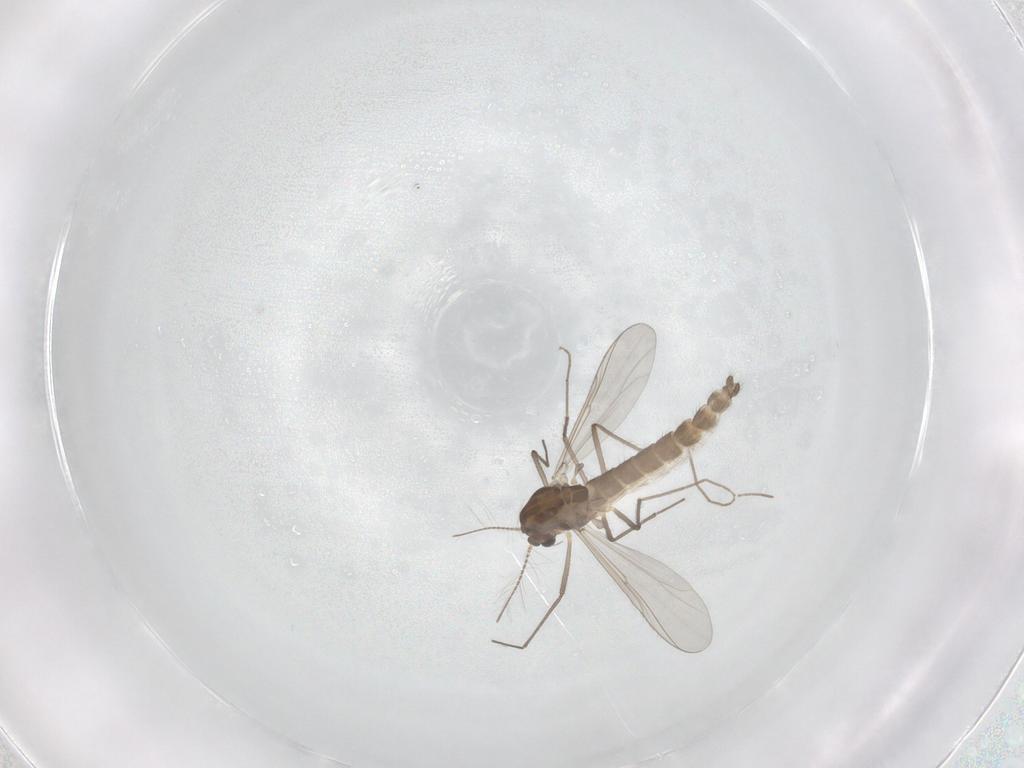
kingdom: Animalia
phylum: Arthropoda
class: Insecta
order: Diptera
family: Chironomidae
